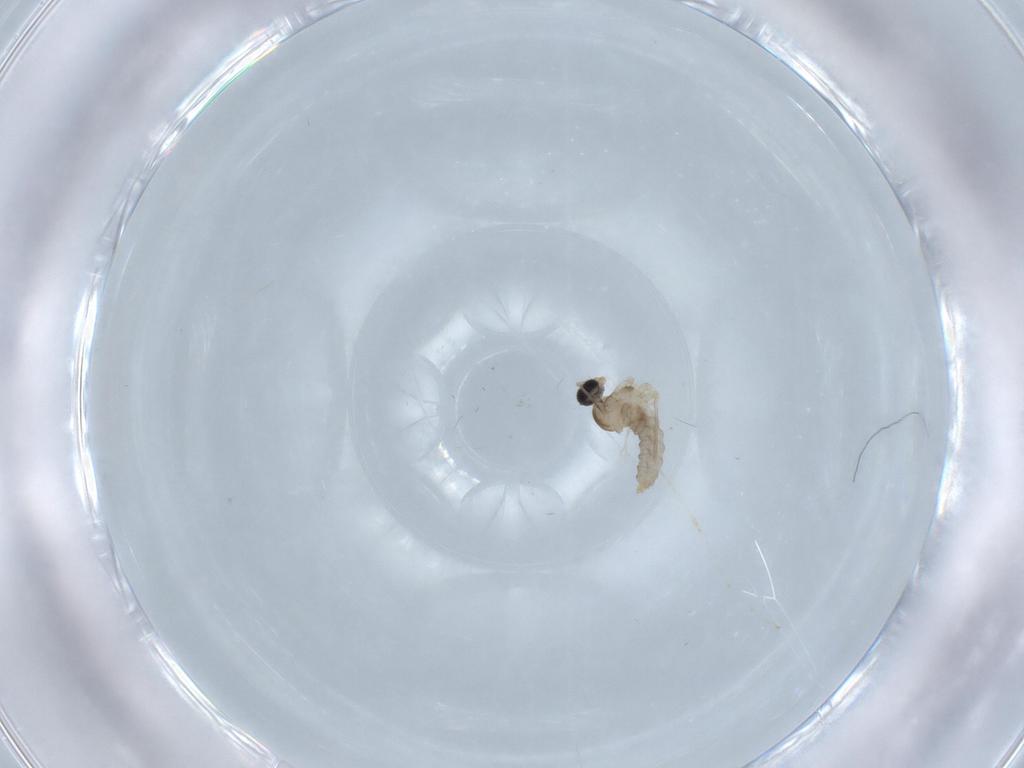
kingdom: Animalia
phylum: Arthropoda
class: Insecta
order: Diptera
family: Cecidomyiidae
